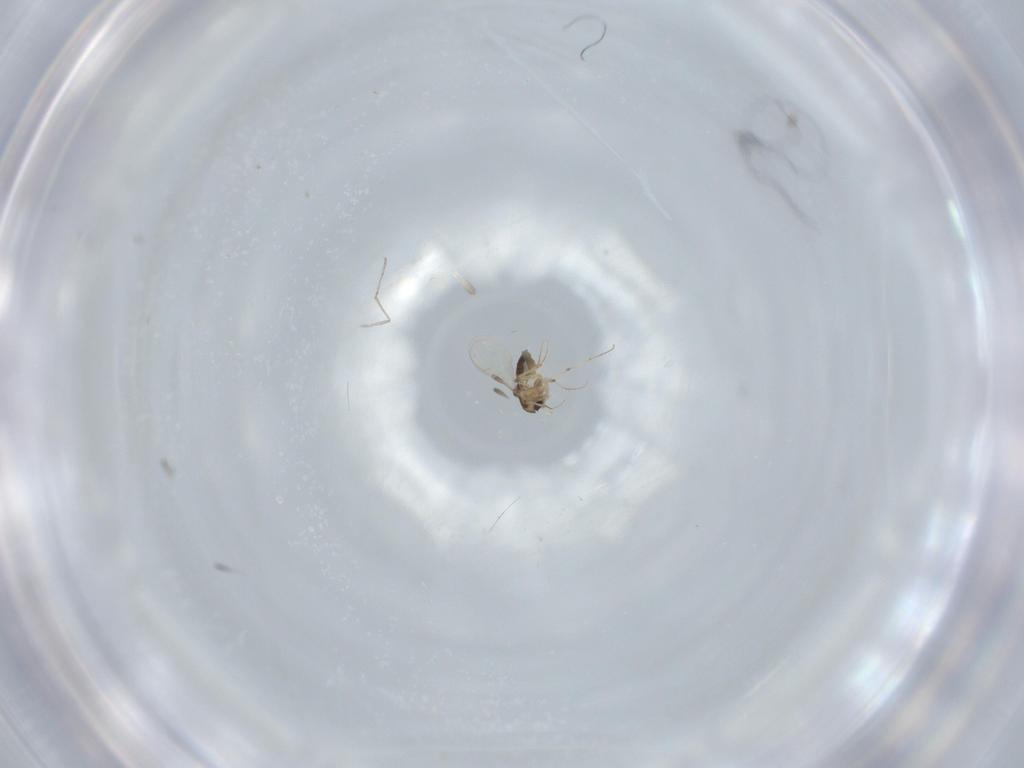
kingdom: Animalia
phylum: Arthropoda
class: Insecta
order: Diptera
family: Chironomidae
